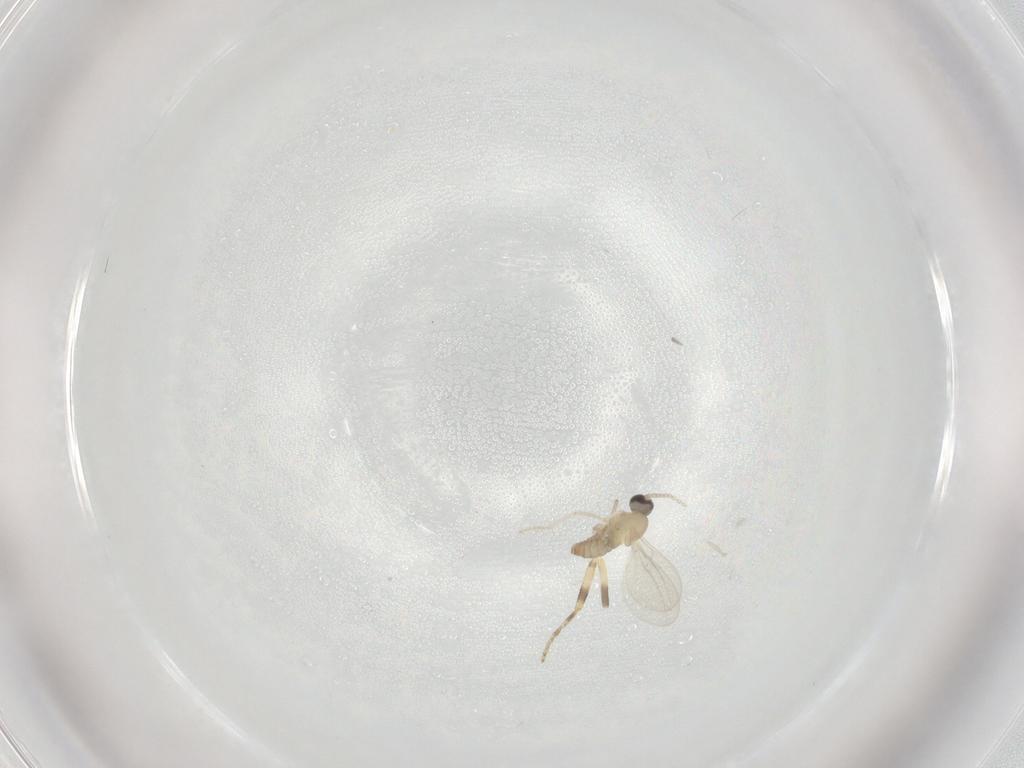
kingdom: Animalia
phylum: Arthropoda
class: Insecta
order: Diptera
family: Cecidomyiidae
